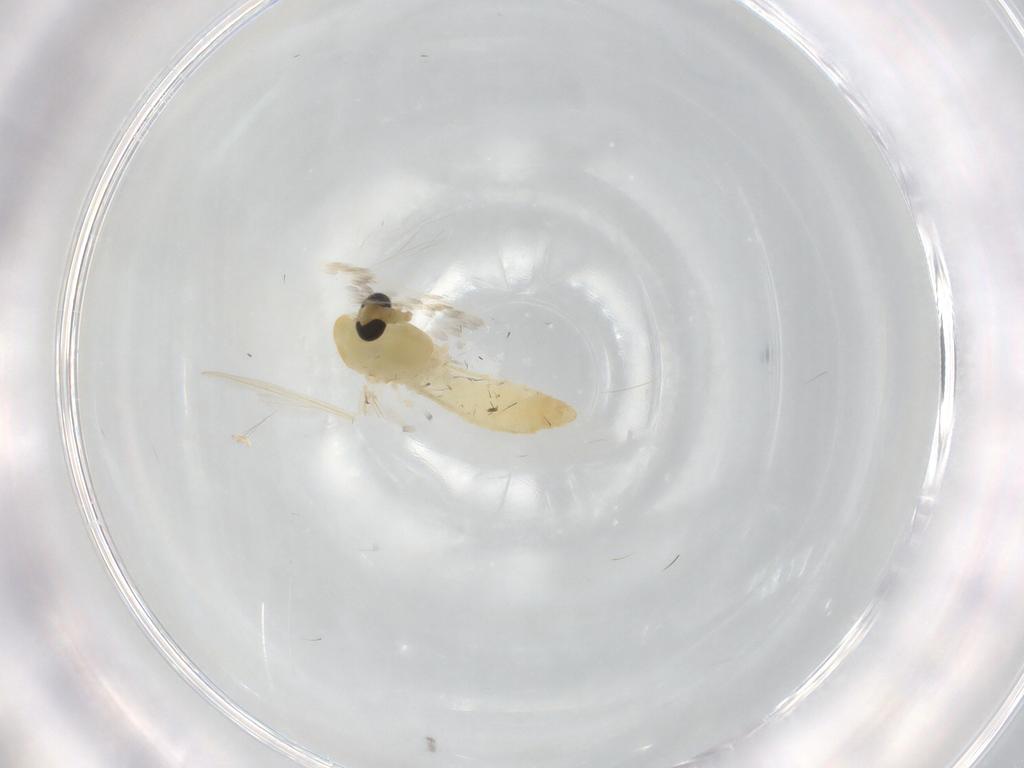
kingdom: Animalia
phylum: Arthropoda
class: Insecta
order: Diptera
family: Chironomidae
